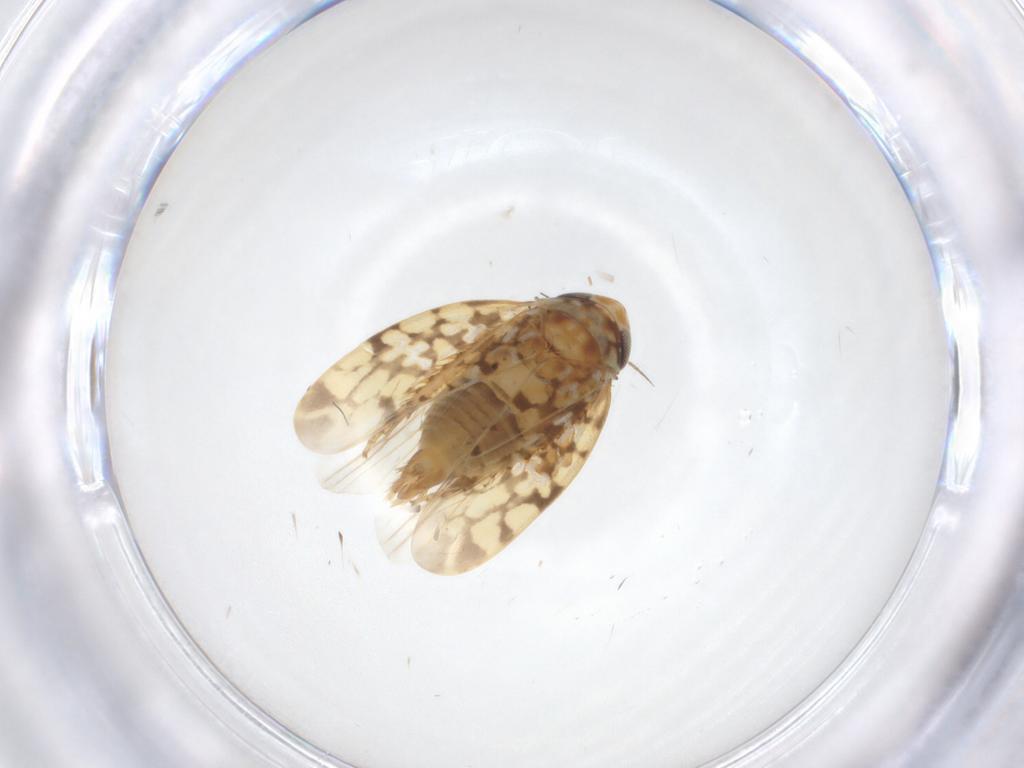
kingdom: Animalia
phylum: Arthropoda
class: Insecta
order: Hemiptera
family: Cicadellidae
